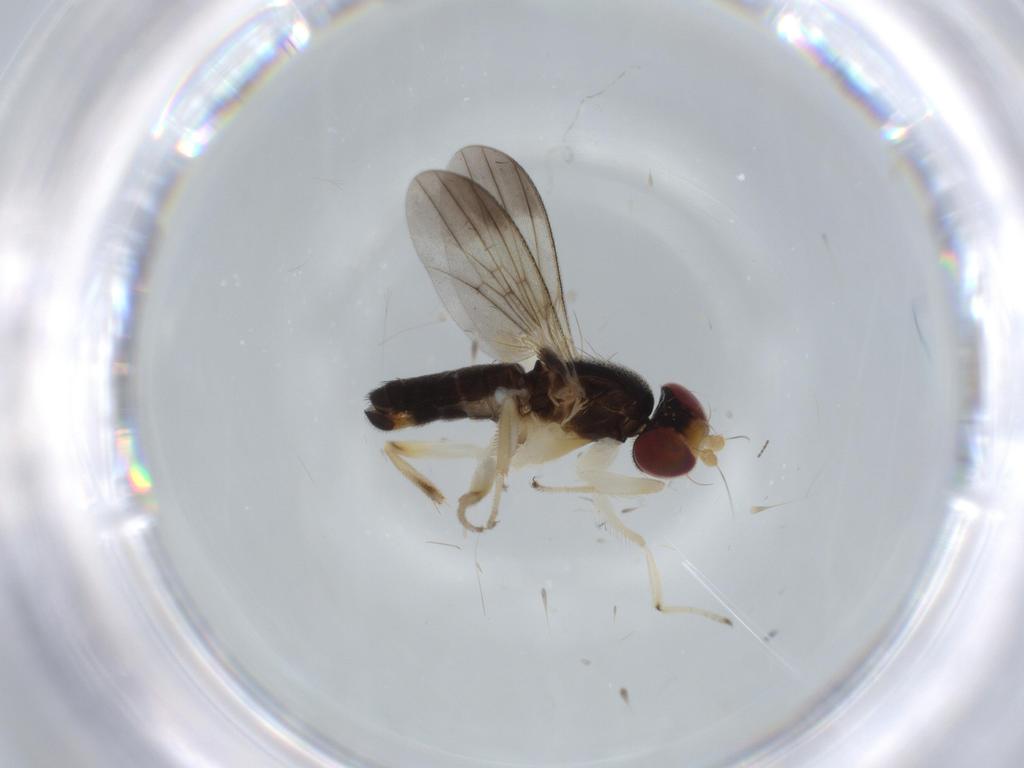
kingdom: Animalia
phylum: Arthropoda
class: Insecta
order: Diptera
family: Clusiidae
